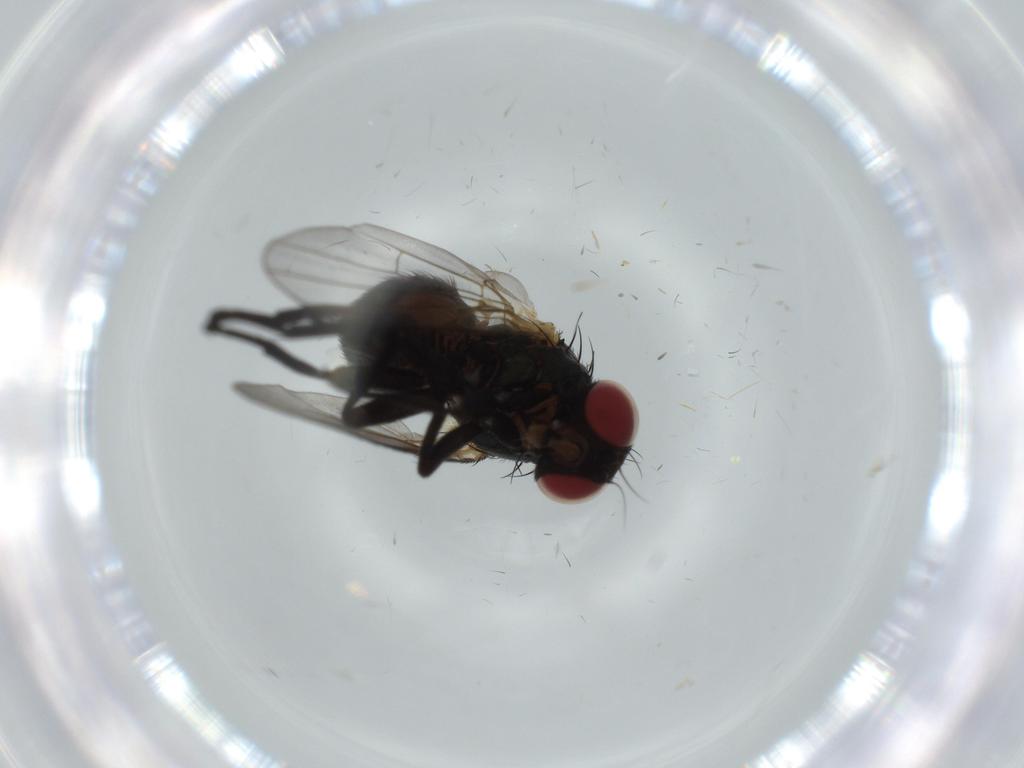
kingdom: Animalia
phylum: Arthropoda
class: Insecta
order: Diptera
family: Agromyzidae
